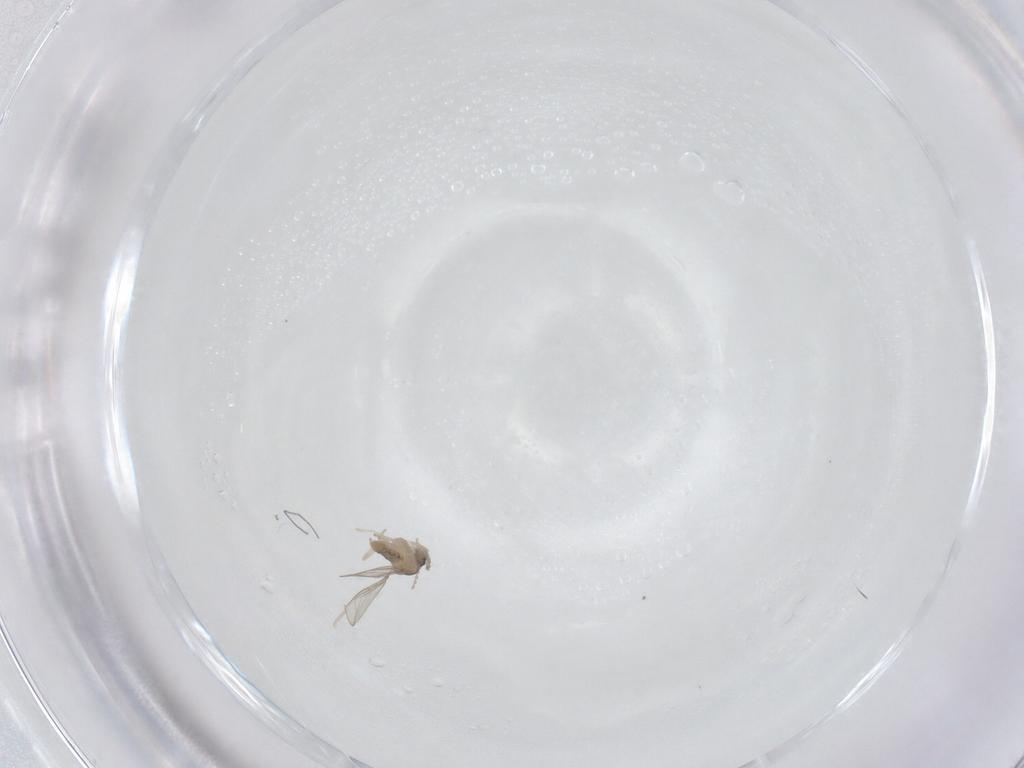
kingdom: Animalia
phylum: Arthropoda
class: Insecta
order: Diptera
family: Cecidomyiidae
